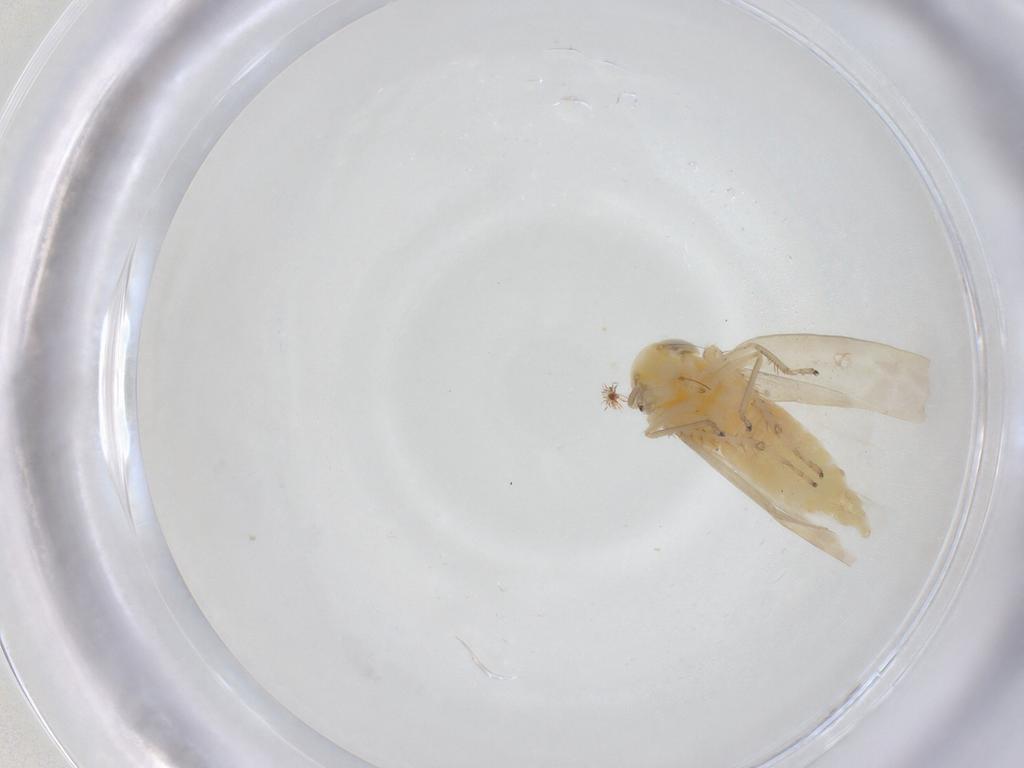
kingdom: Animalia
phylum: Arthropoda
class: Insecta
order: Hemiptera
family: Miridae
